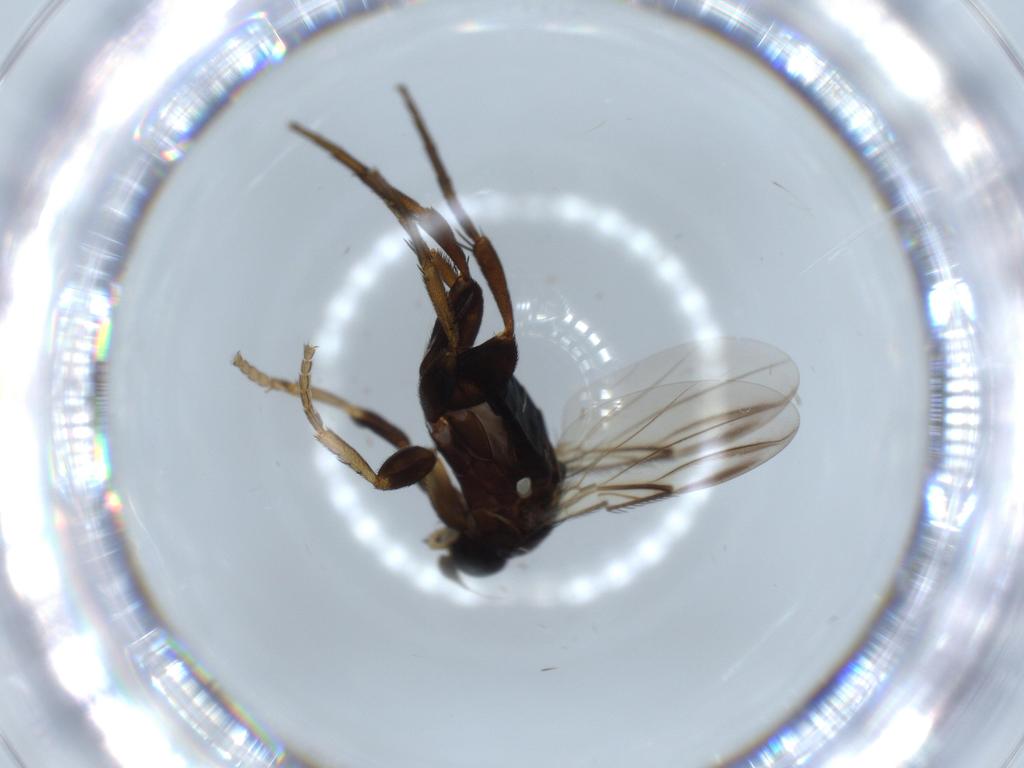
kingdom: Animalia
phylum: Arthropoda
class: Insecta
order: Diptera
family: Phoridae
